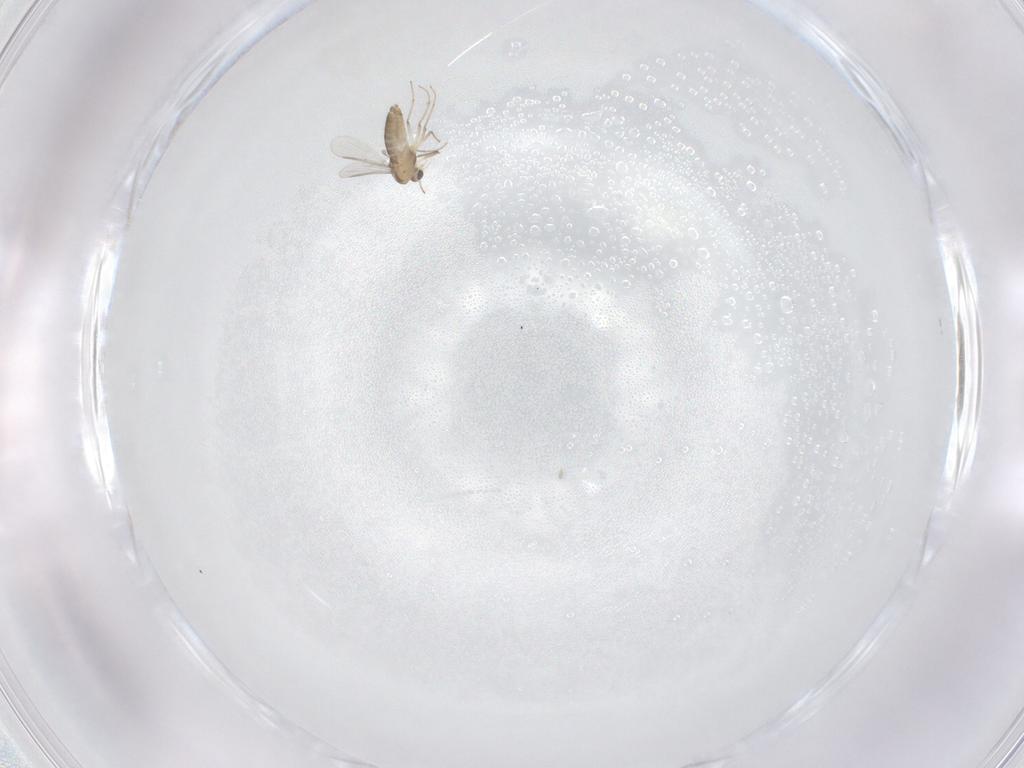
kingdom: Animalia
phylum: Arthropoda
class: Insecta
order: Diptera
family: Chironomidae
